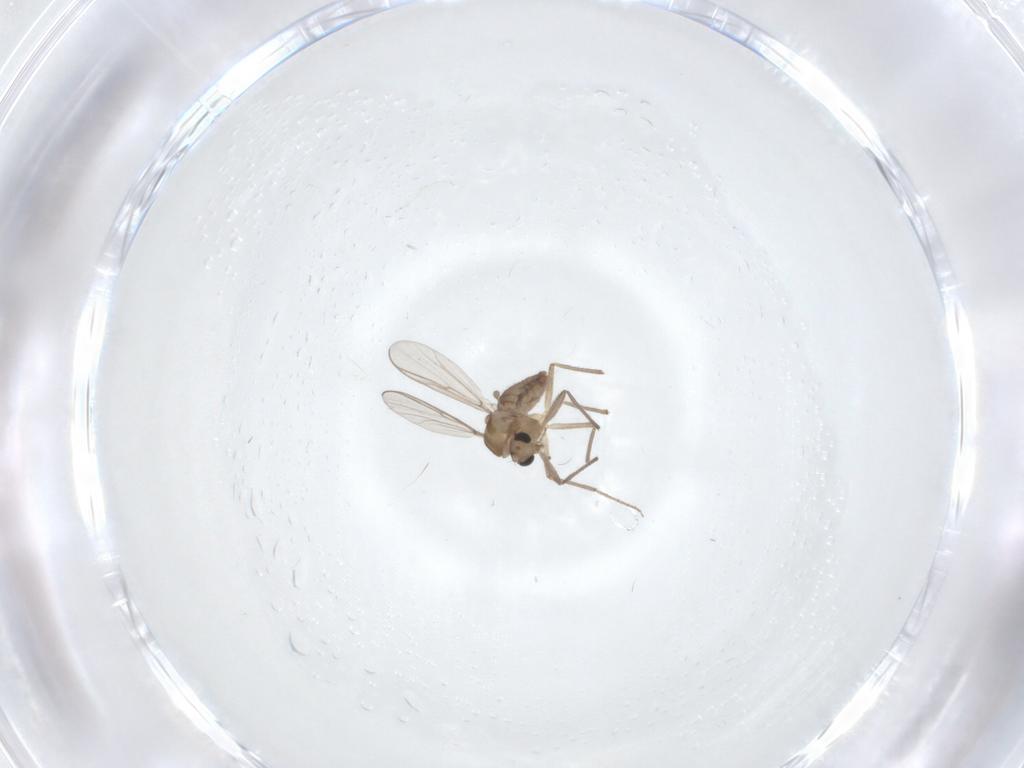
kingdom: Animalia
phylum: Arthropoda
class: Insecta
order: Diptera
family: Chironomidae
